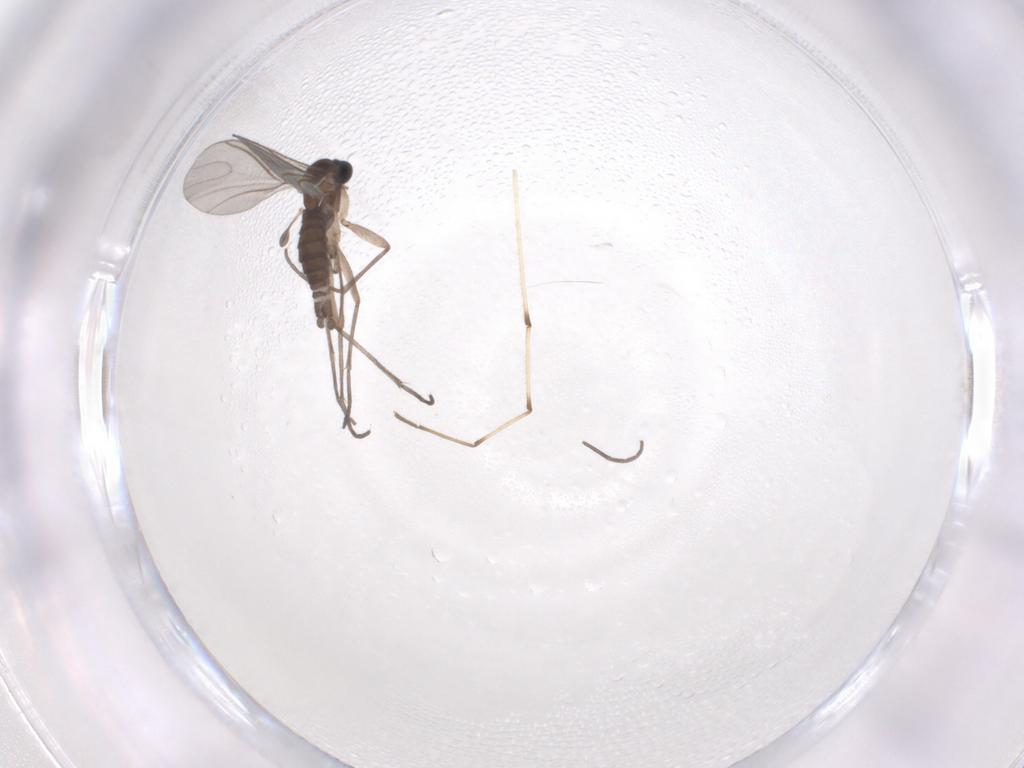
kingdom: Animalia
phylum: Arthropoda
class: Insecta
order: Diptera
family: Sciaridae
